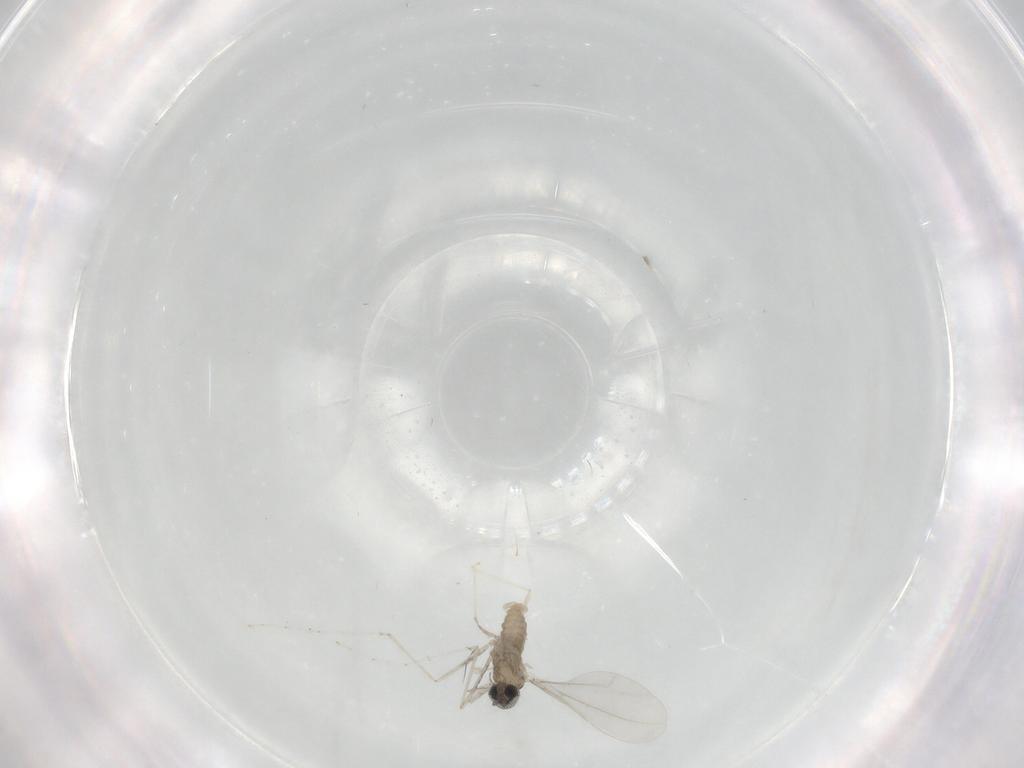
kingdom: Animalia
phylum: Arthropoda
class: Insecta
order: Diptera
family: Cecidomyiidae
